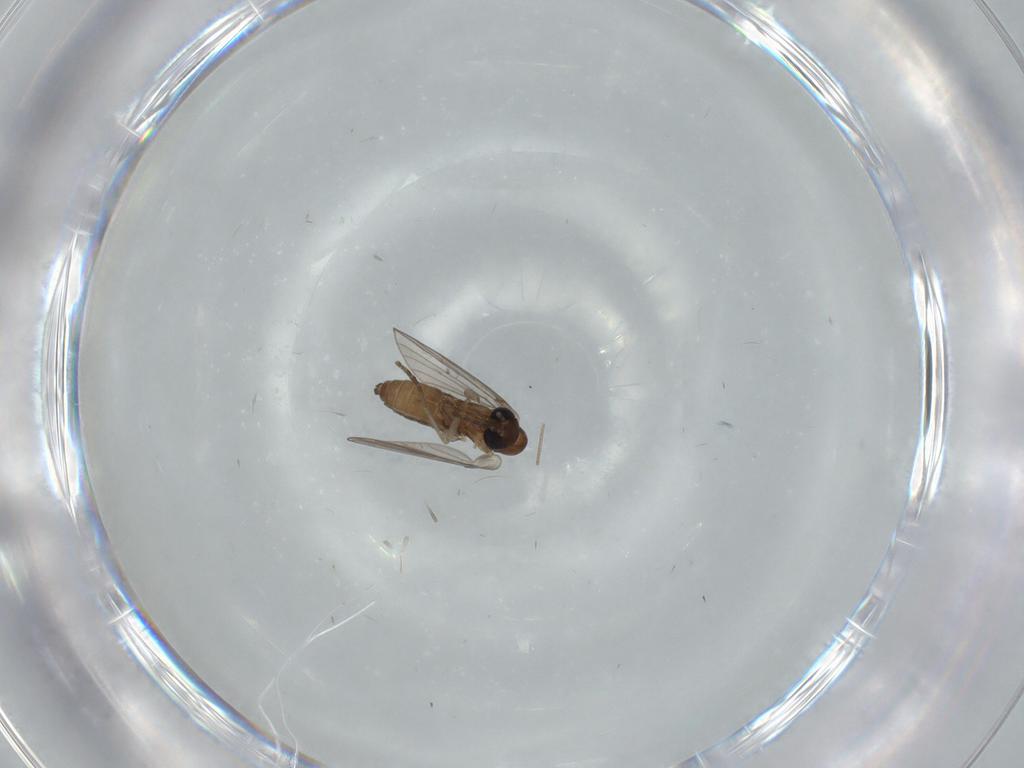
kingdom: Animalia
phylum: Arthropoda
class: Insecta
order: Diptera
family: Psychodidae
